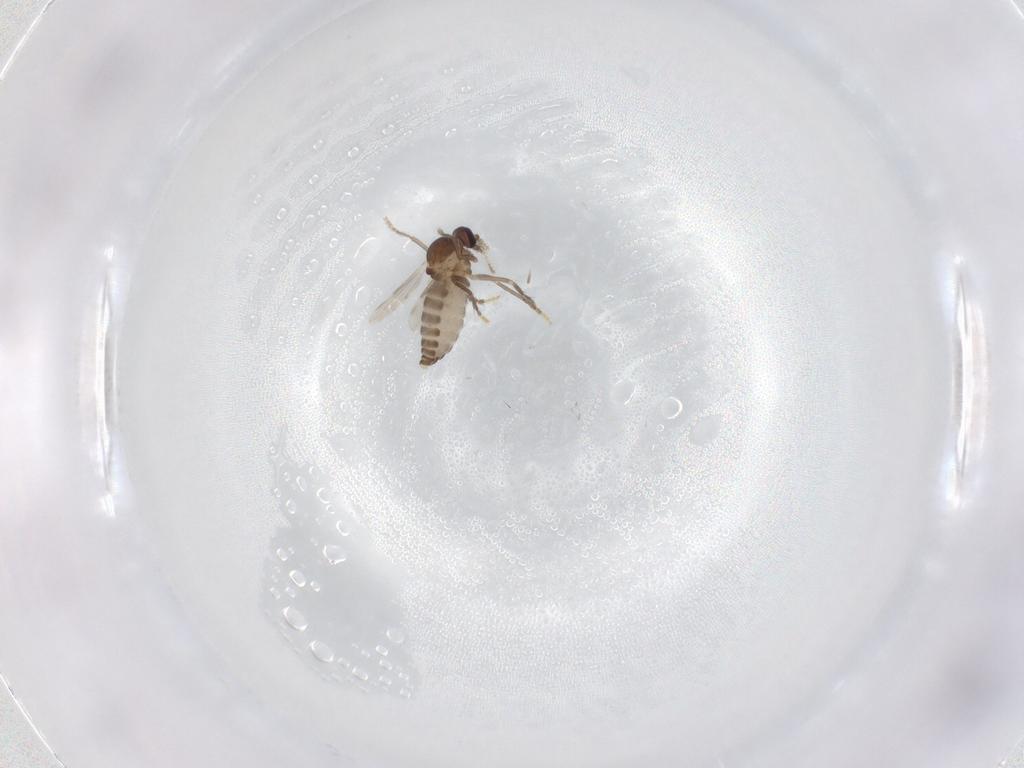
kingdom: Animalia
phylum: Arthropoda
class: Insecta
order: Diptera
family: Ceratopogonidae
